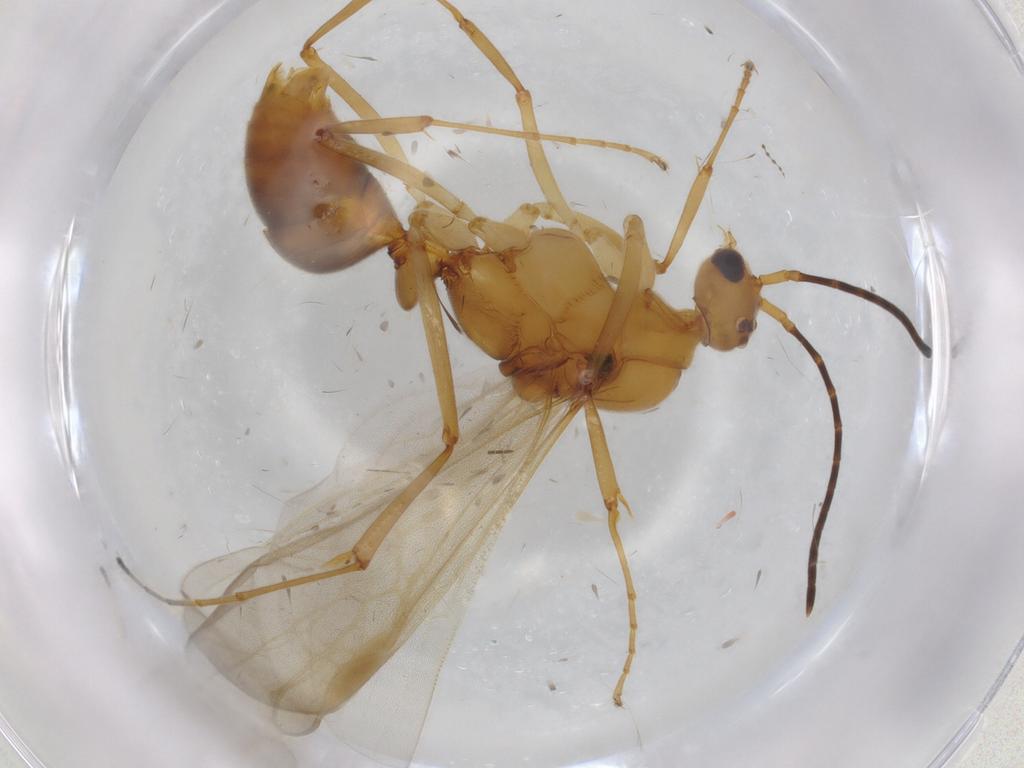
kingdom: Animalia
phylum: Arthropoda
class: Insecta
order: Hymenoptera
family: Formicidae
